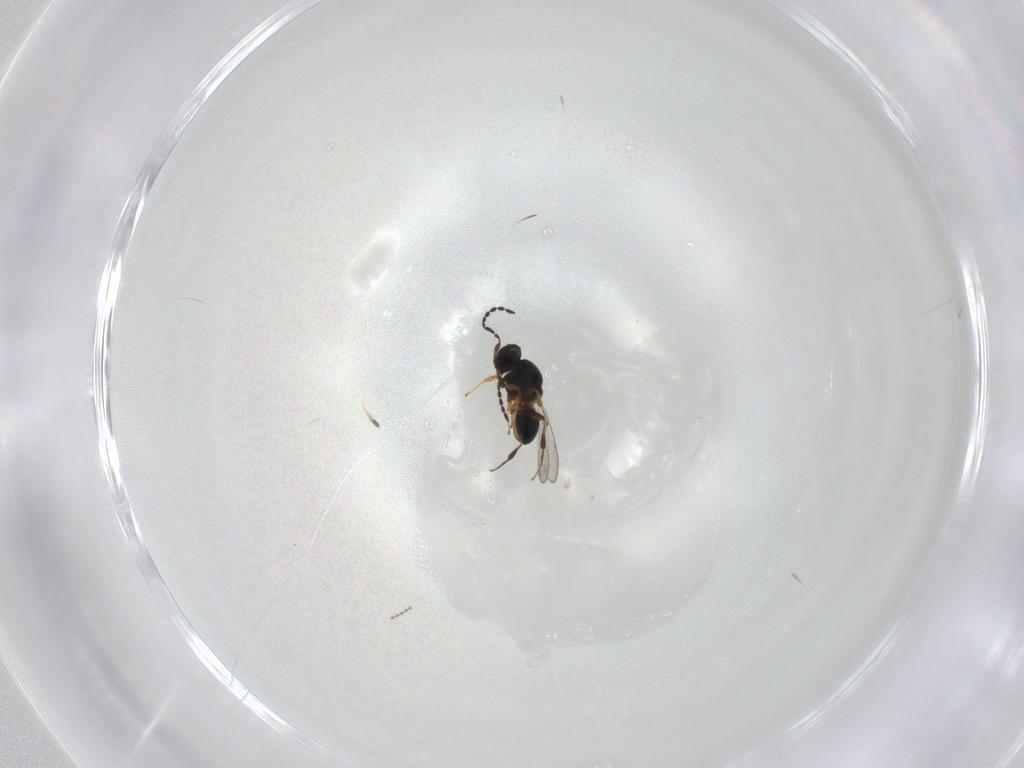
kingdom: Animalia
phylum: Arthropoda
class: Insecta
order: Hymenoptera
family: Platygastridae
